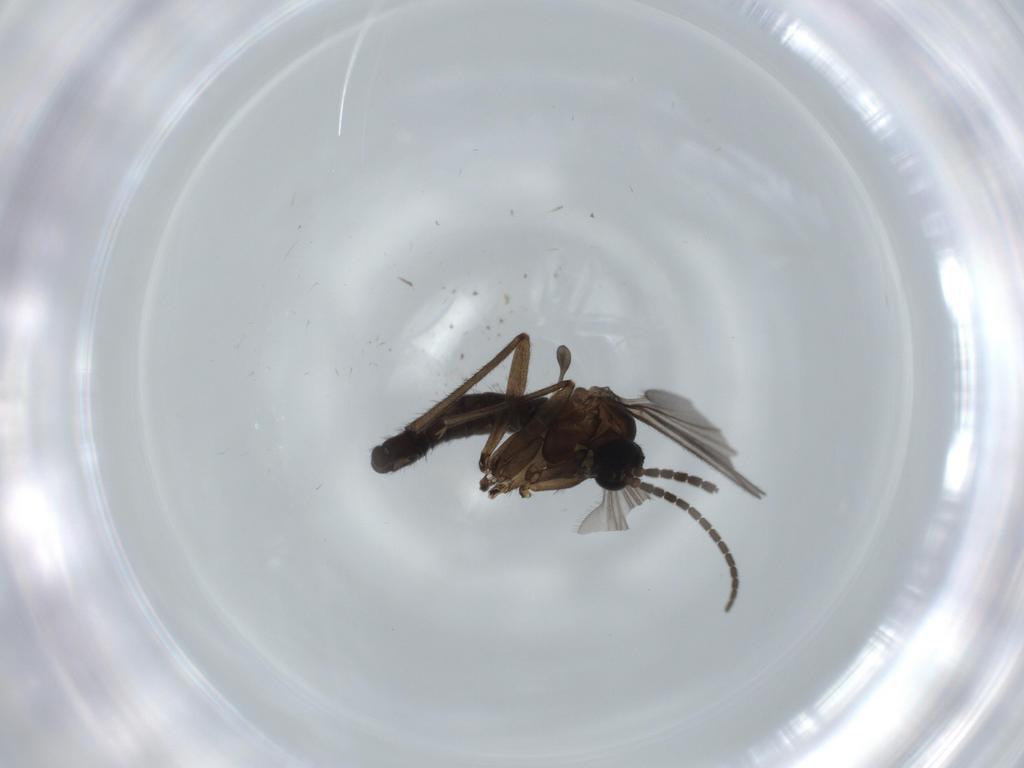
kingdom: Animalia
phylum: Arthropoda
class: Insecta
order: Diptera
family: Sciaridae
